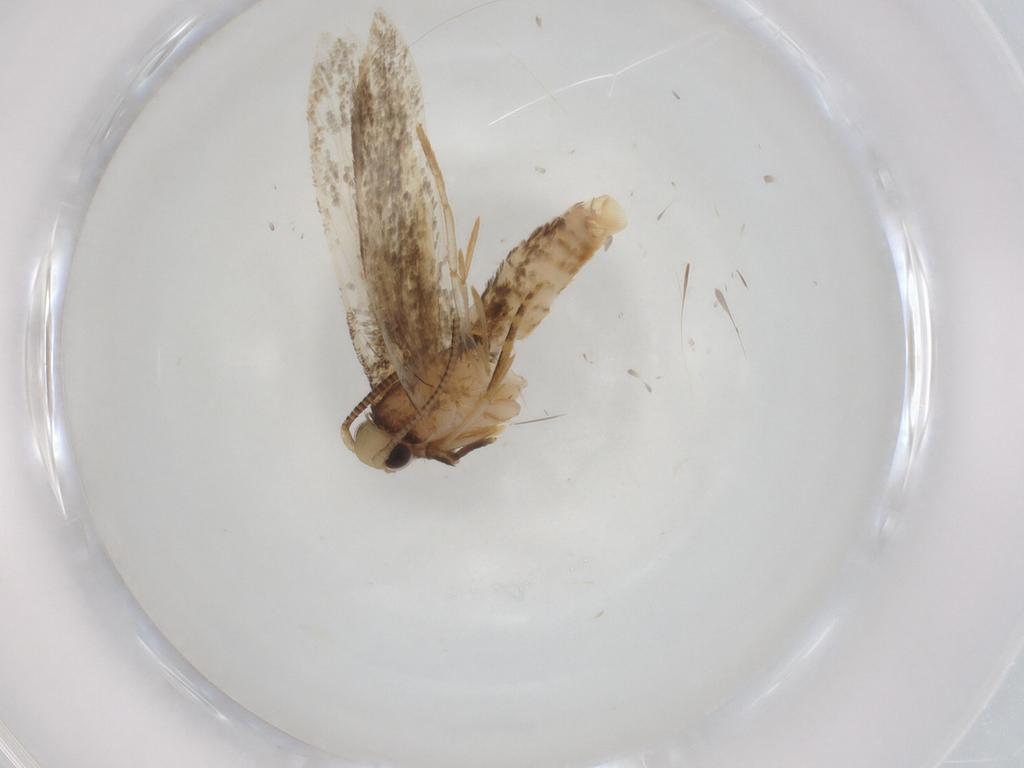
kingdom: Animalia
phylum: Arthropoda
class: Insecta
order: Lepidoptera
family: Tineidae
